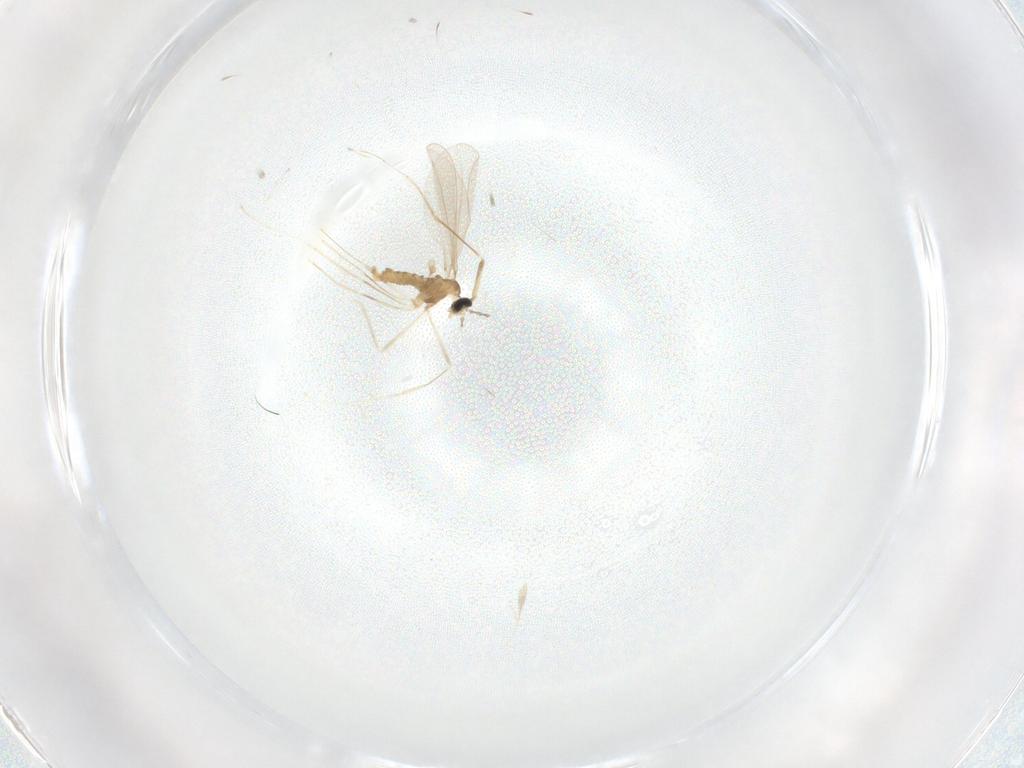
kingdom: Animalia
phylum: Arthropoda
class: Insecta
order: Diptera
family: Cecidomyiidae
